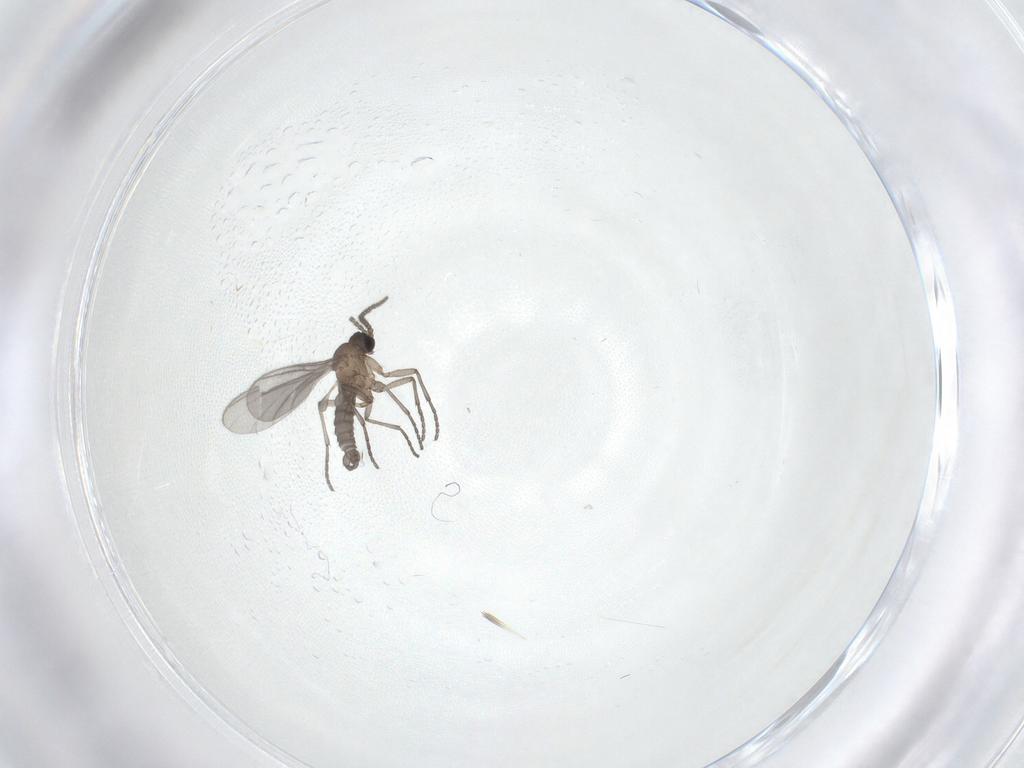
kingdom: Animalia
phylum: Arthropoda
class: Insecta
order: Diptera
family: Sciaridae
